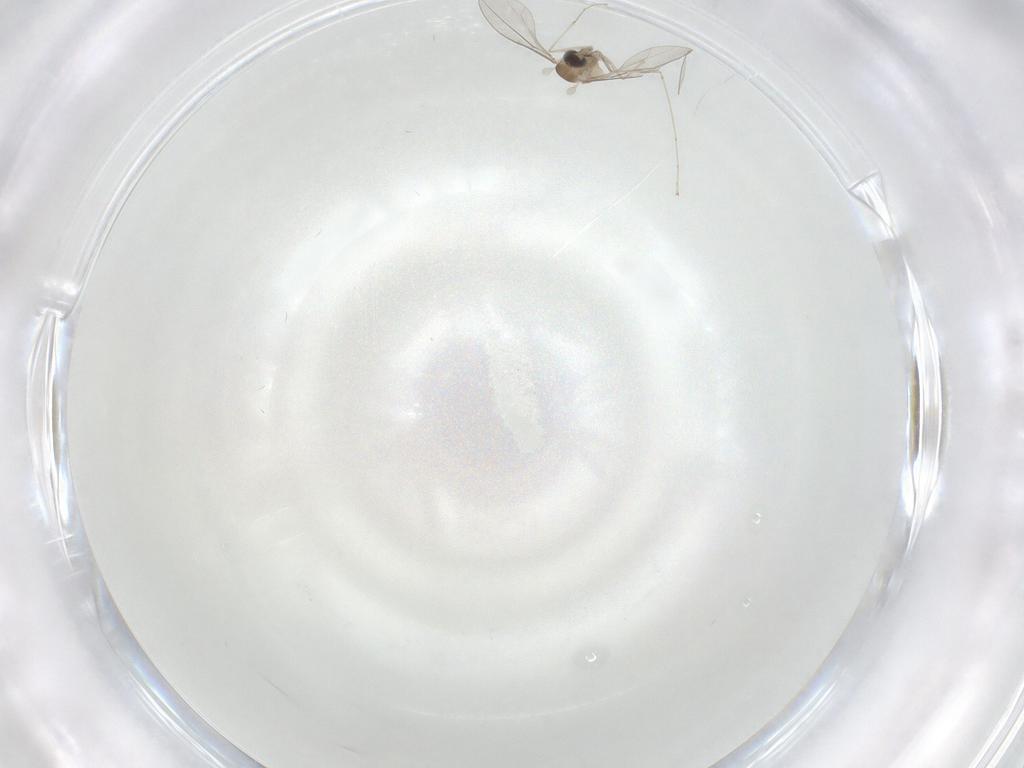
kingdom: Animalia
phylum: Arthropoda
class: Insecta
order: Diptera
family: Cecidomyiidae
